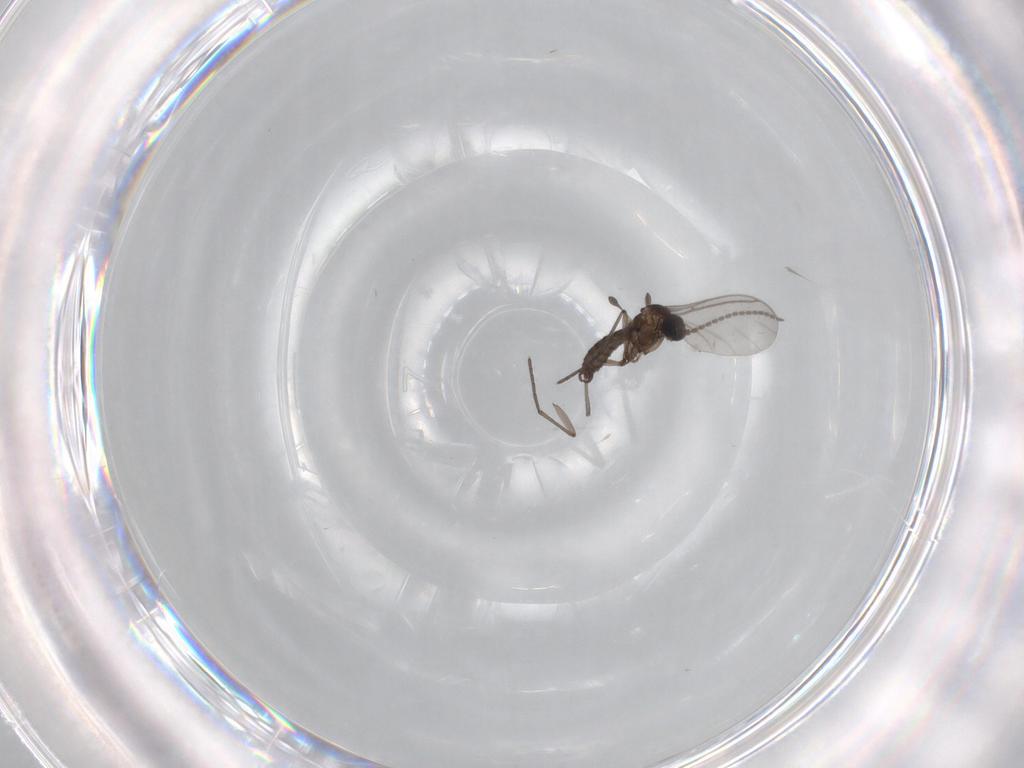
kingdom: Animalia
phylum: Arthropoda
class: Insecta
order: Diptera
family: Sciaridae
